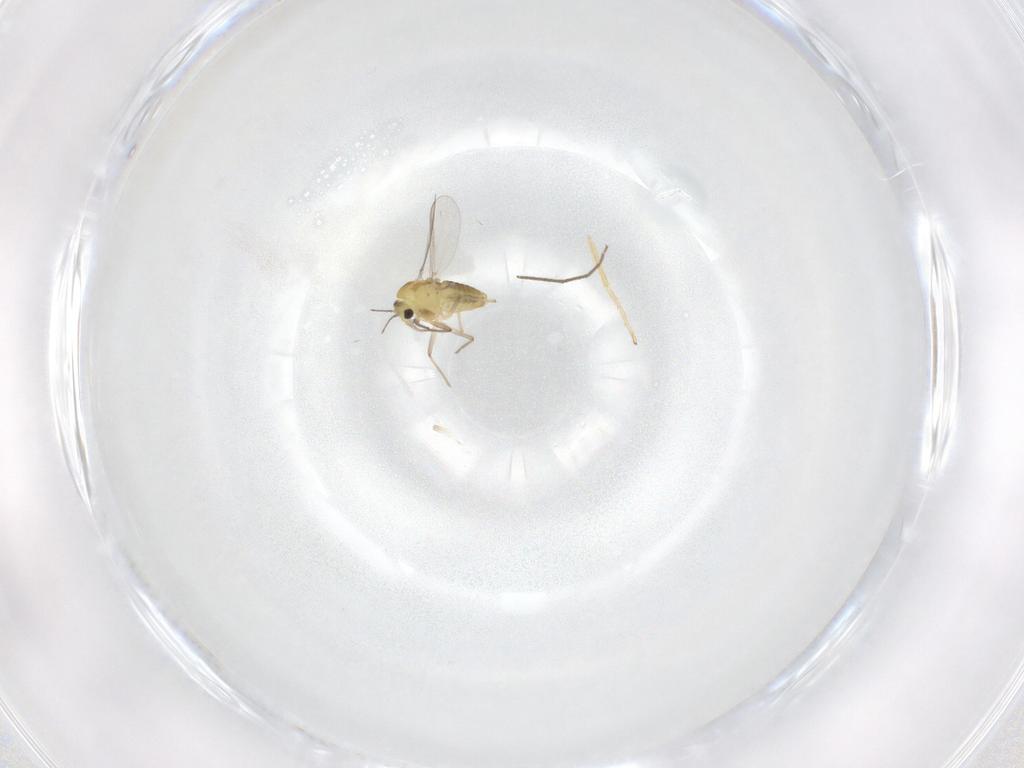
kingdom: Animalia
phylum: Arthropoda
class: Insecta
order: Diptera
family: Chironomidae
